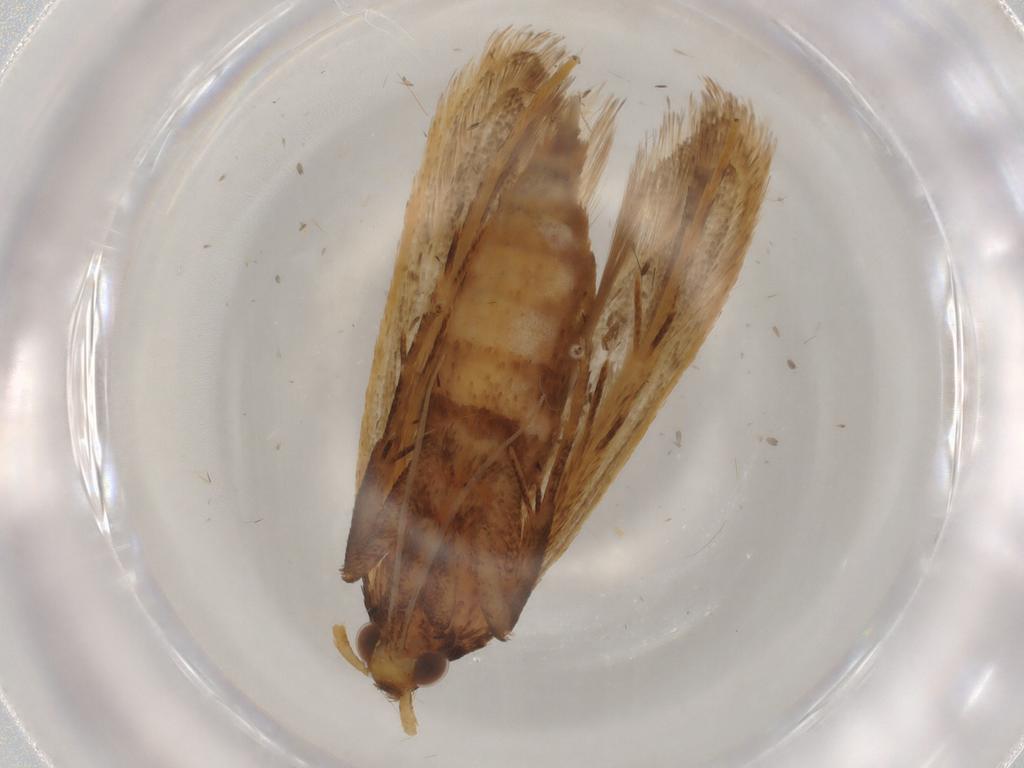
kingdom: Animalia
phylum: Arthropoda
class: Insecta
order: Lepidoptera
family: Lecithoceridae
